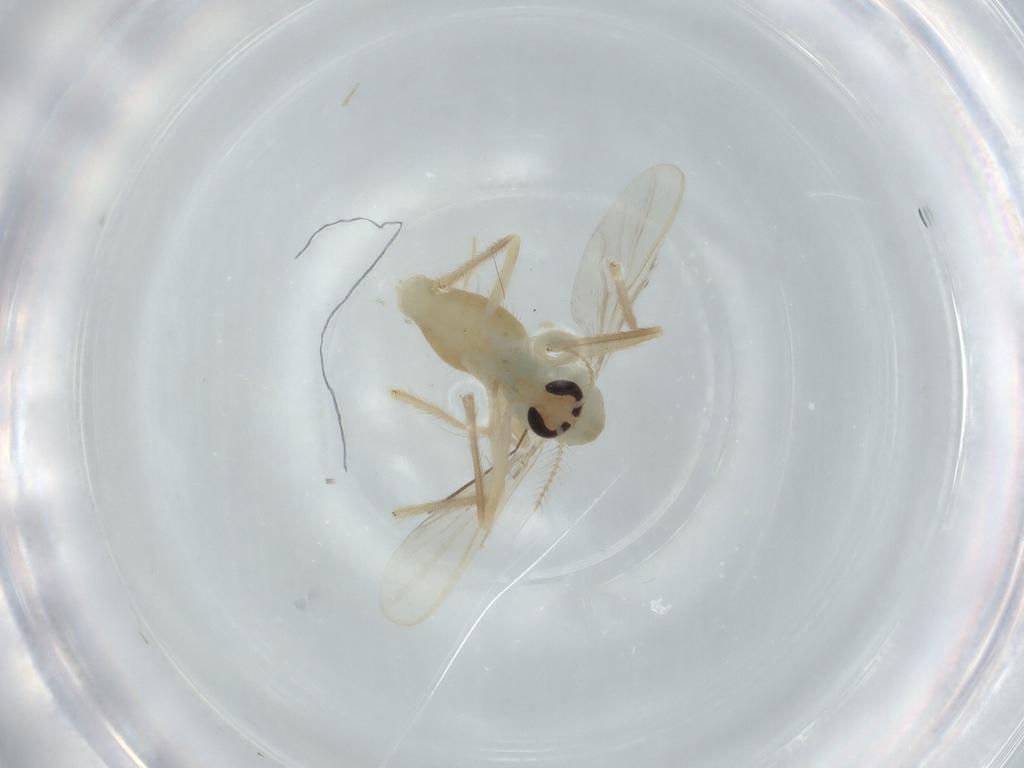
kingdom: Animalia
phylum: Arthropoda
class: Insecta
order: Diptera
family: Chironomidae
